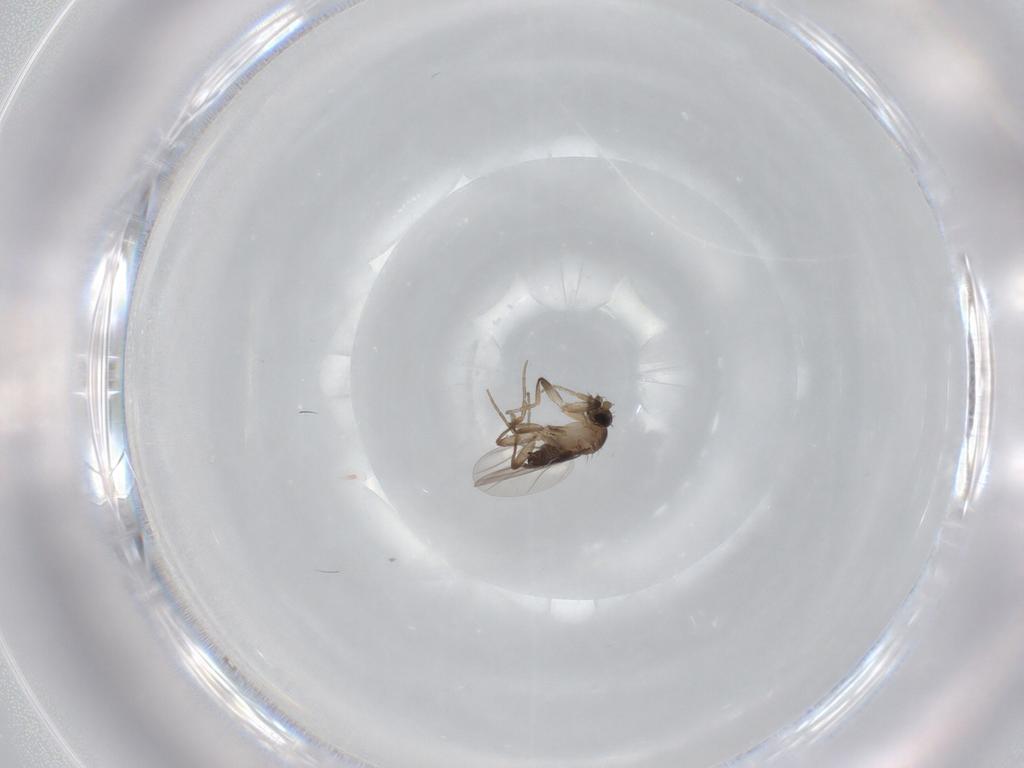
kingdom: Animalia
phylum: Arthropoda
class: Insecta
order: Diptera
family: Phoridae
